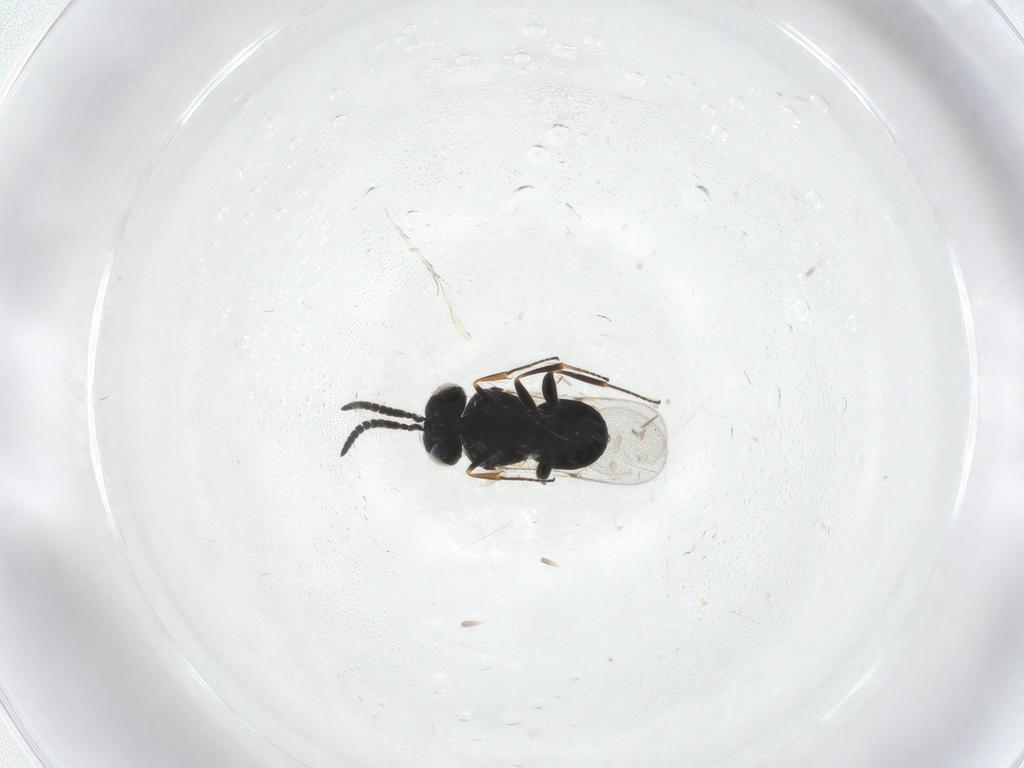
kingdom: Animalia
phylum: Arthropoda
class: Insecta
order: Hymenoptera
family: Scelionidae
